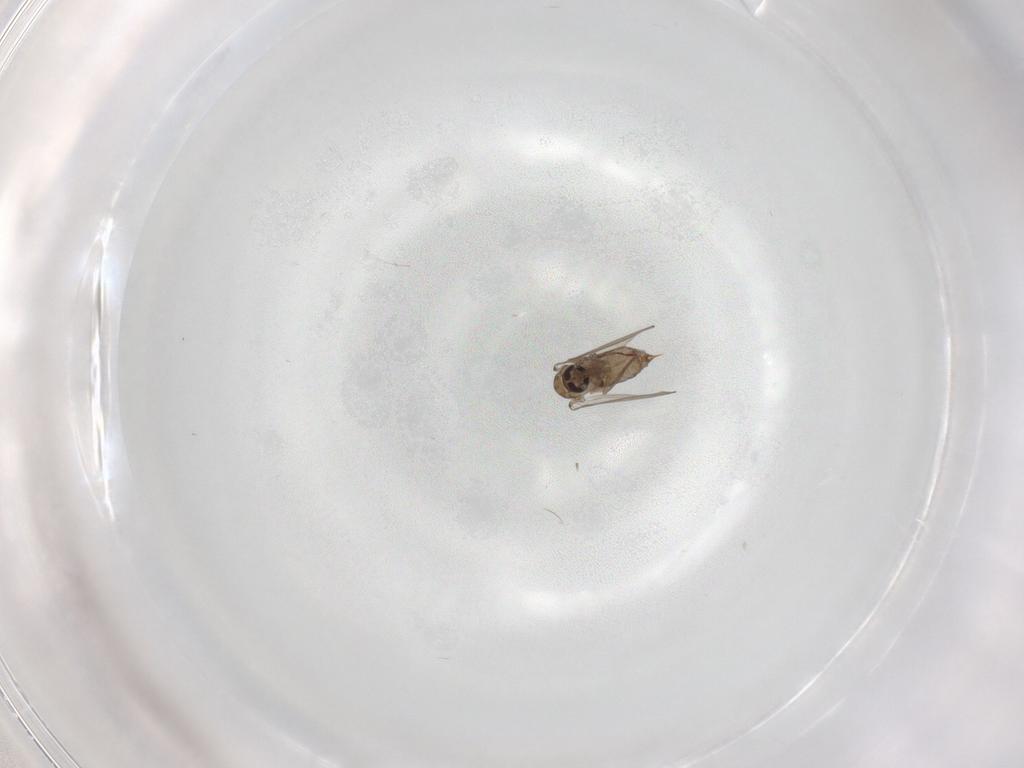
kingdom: Animalia
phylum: Arthropoda
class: Insecta
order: Diptera
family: Psychodidae
